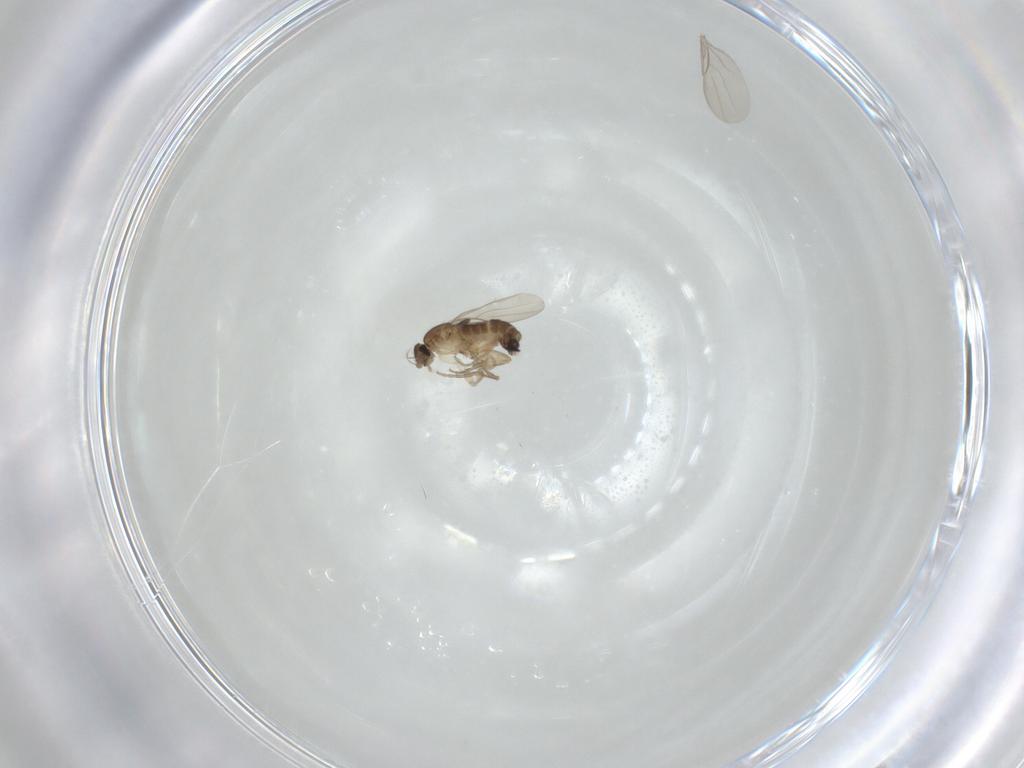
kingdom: Animalia
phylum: Arthropoda
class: Insecta
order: Diptera
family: Phoridae
